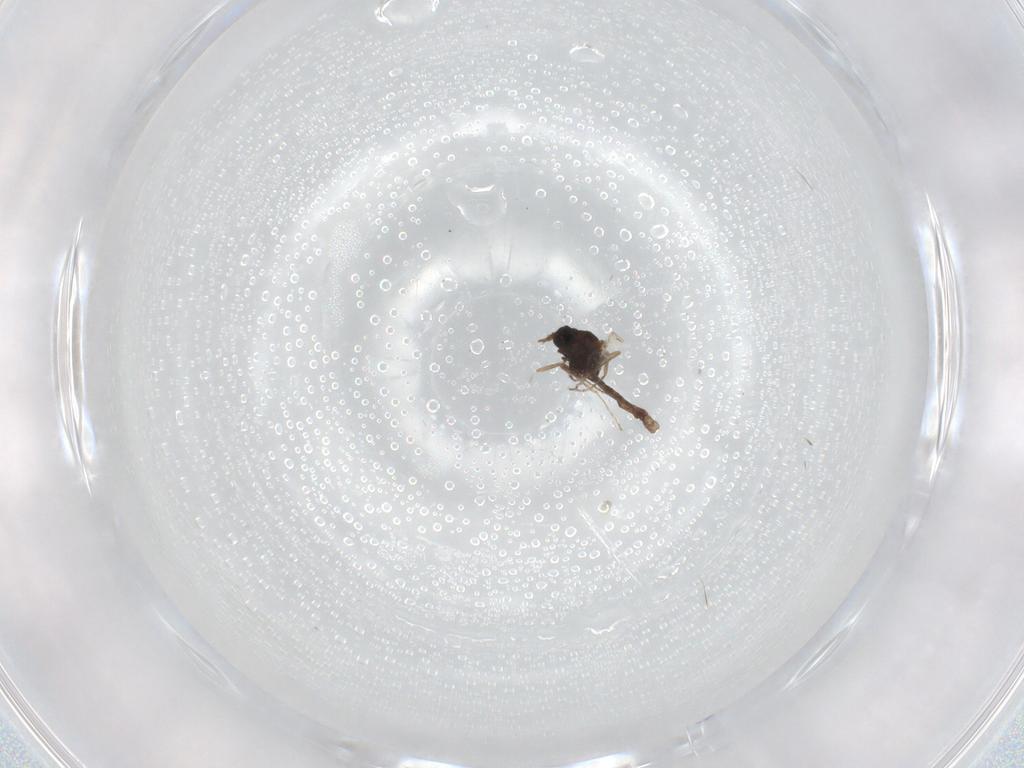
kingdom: Animalia
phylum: Arthropoda
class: Insecta
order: Diptera
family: Ceratopogonidae
